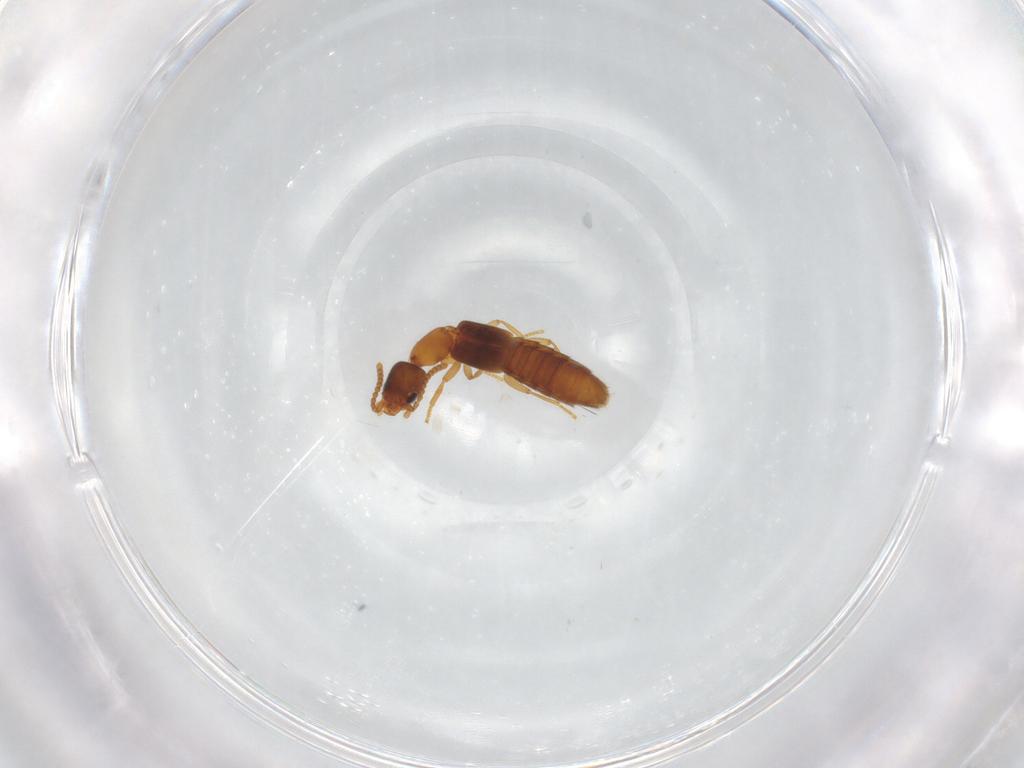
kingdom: Animalia
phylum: Arthropoda
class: Insecta
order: Coleoptera
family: Staphylinidae
